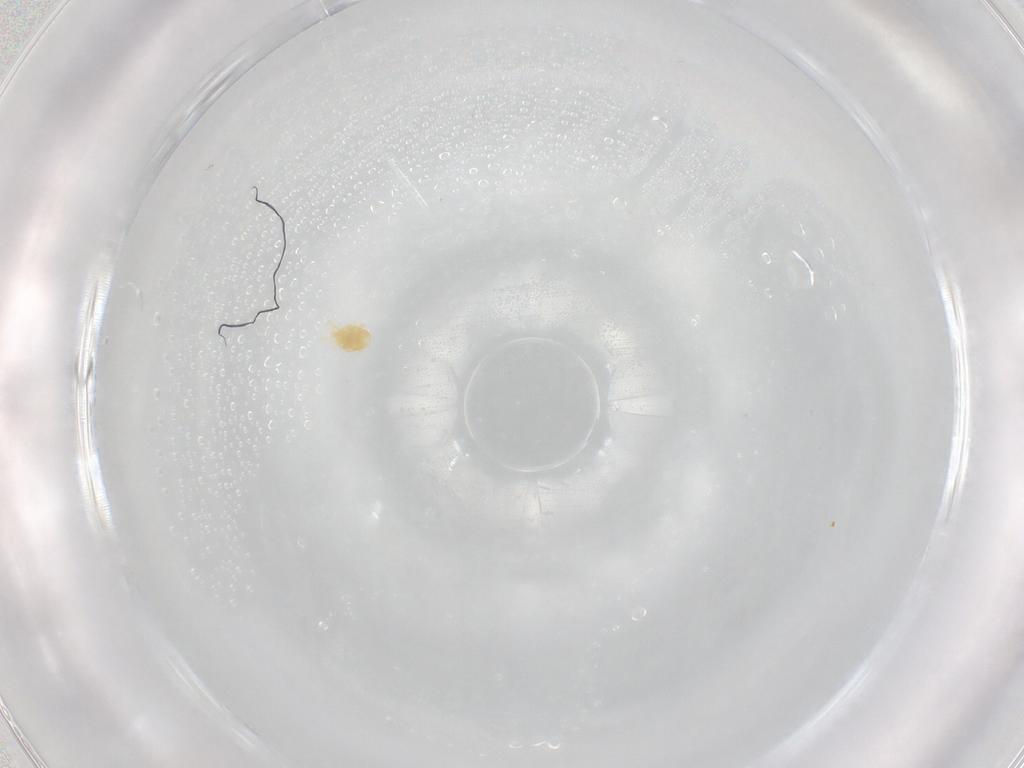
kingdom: Animalia
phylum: Arthropoda
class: Arachnida
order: Trombidiformes
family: Eupodidae
